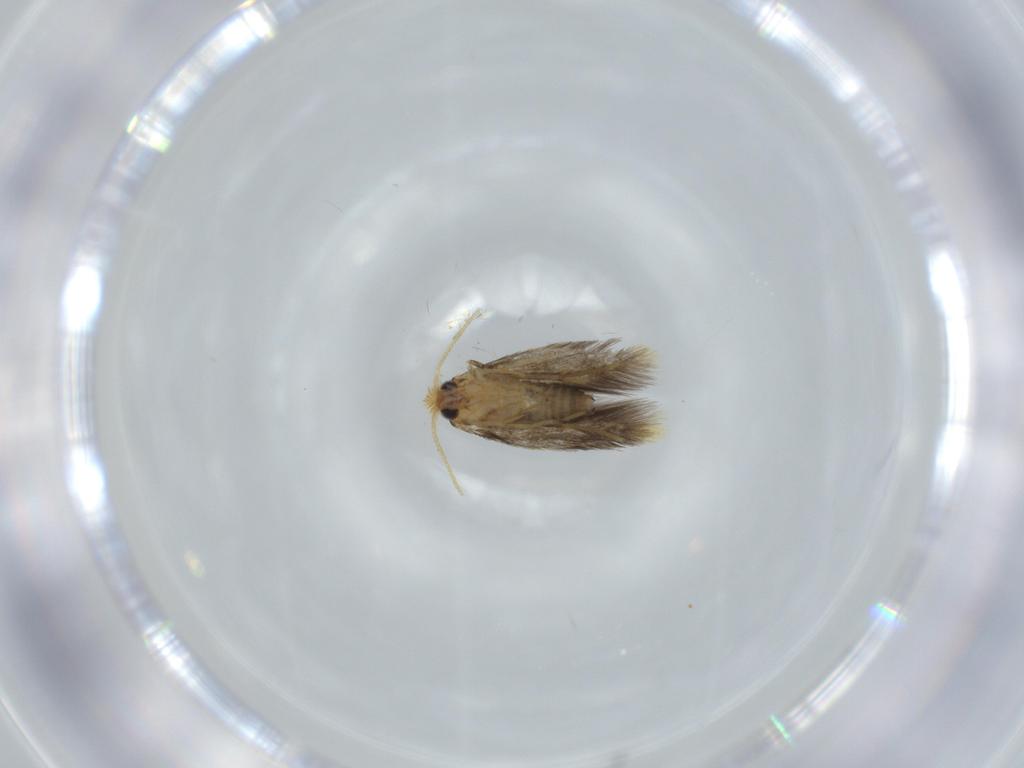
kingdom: Animalia
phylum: Arthropoda
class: Insecta
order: Lepidoptera
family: Copromorphidae
